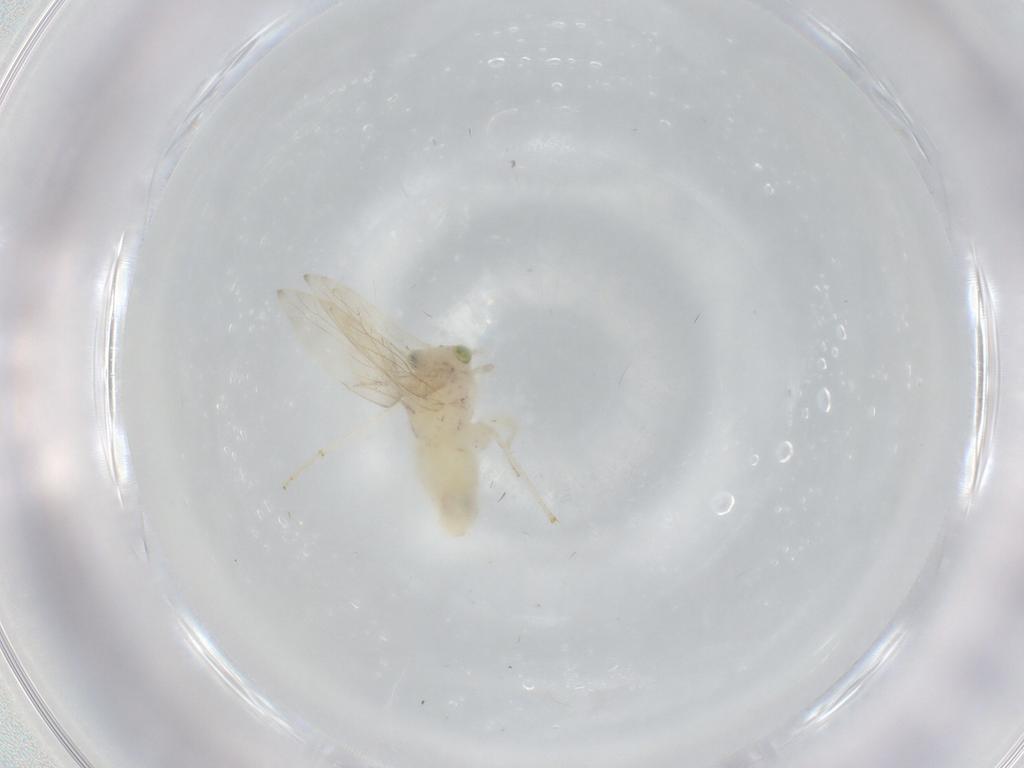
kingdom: Animalia
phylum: Arthropoda
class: Insecta
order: Psocodea
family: Lepidopsocidae
